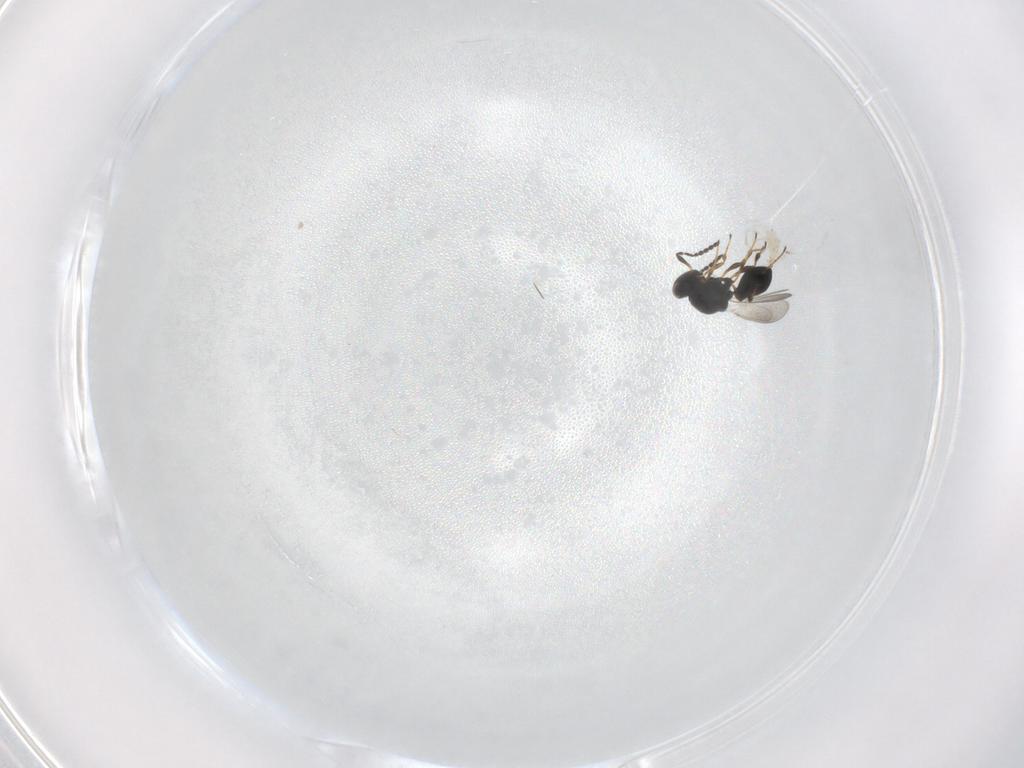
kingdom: Animalia
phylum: Arthropoda
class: Insecta
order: Hymenoptera
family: Platygastridae
